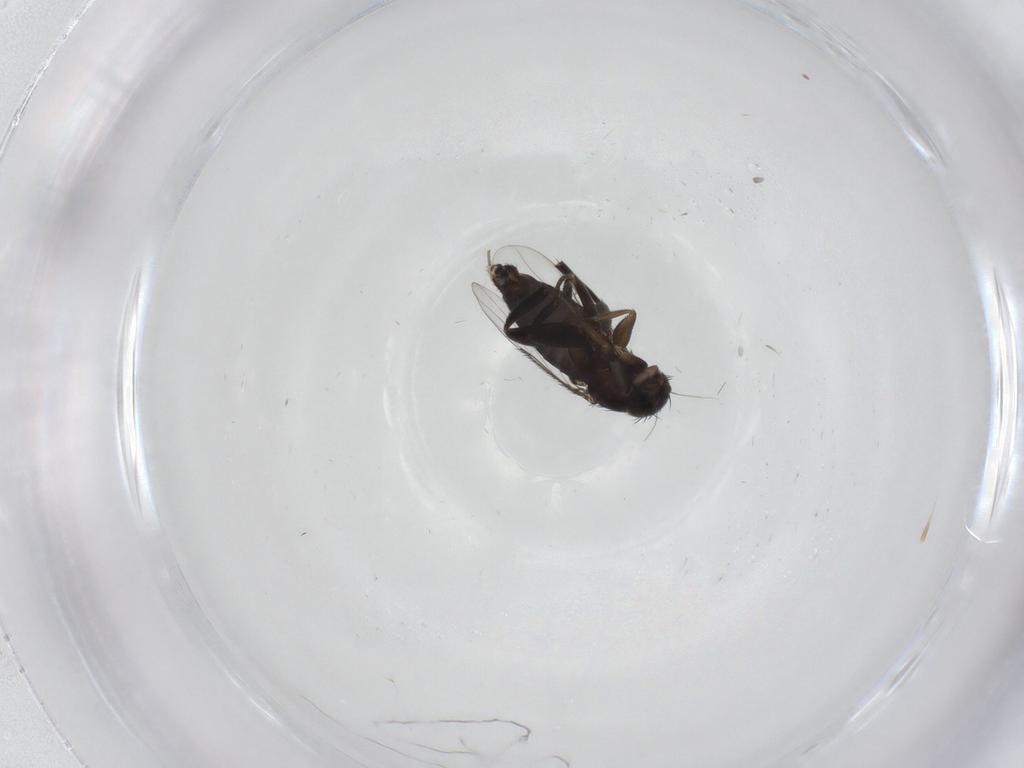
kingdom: Animalia
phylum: Arthropoda
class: Insecta
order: Diptera
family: Phoridae
